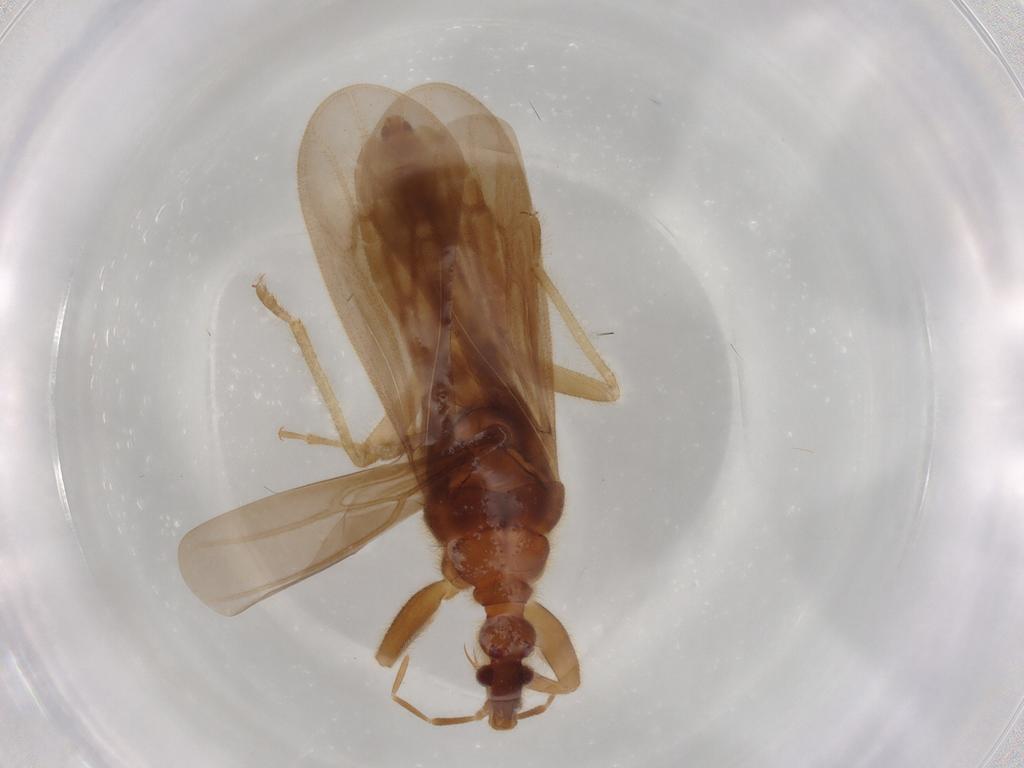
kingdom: Animalia
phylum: Arthropoda
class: Insecta
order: Hemiptera
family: Enicocephalidae
